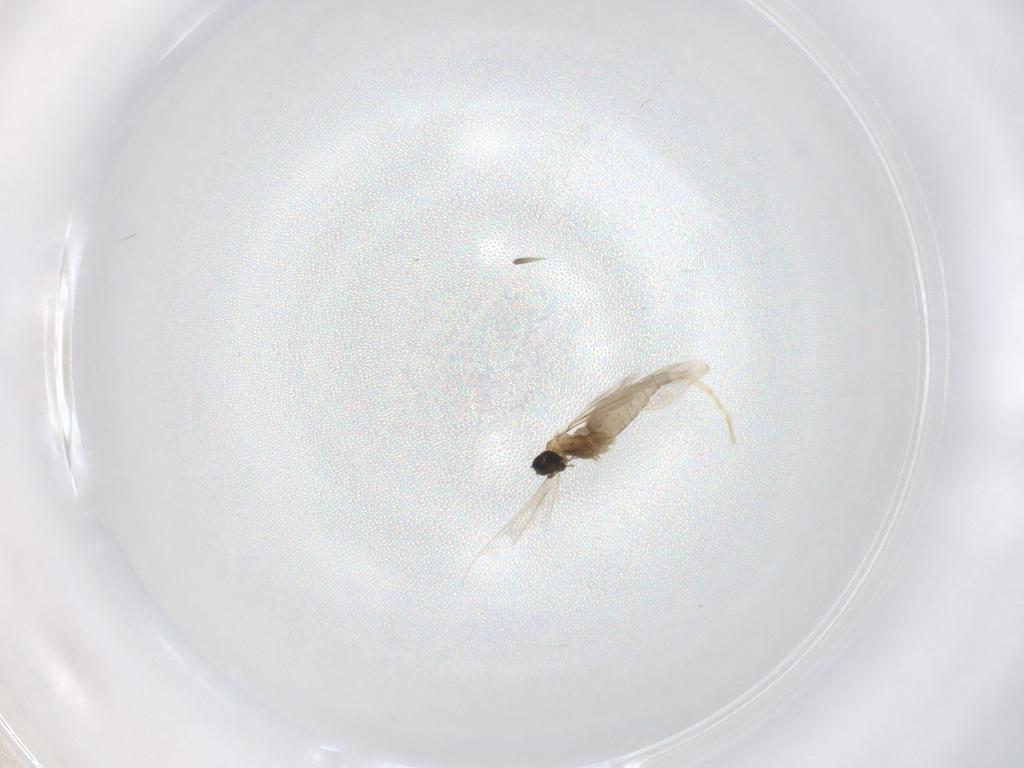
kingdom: Animalia
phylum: Arthropoda
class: Insecta
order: Diptera
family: Cecidomyiidae
